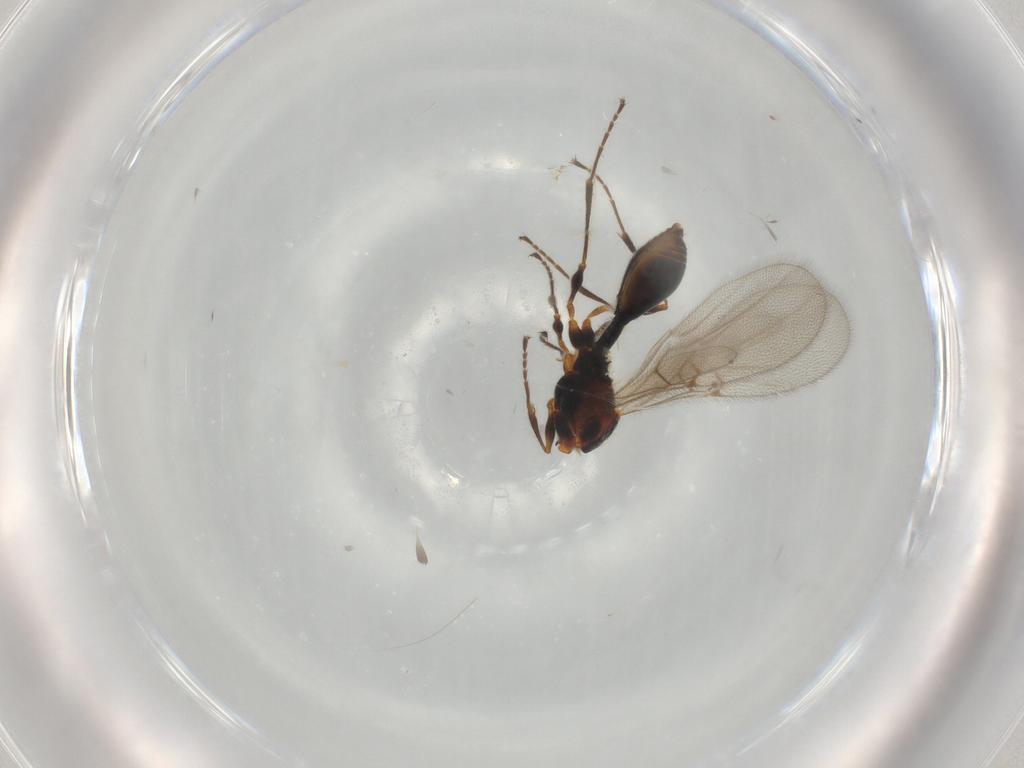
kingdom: Animalia
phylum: Arthropoda
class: Insecta
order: Hymenoptera
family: Diapriidae
